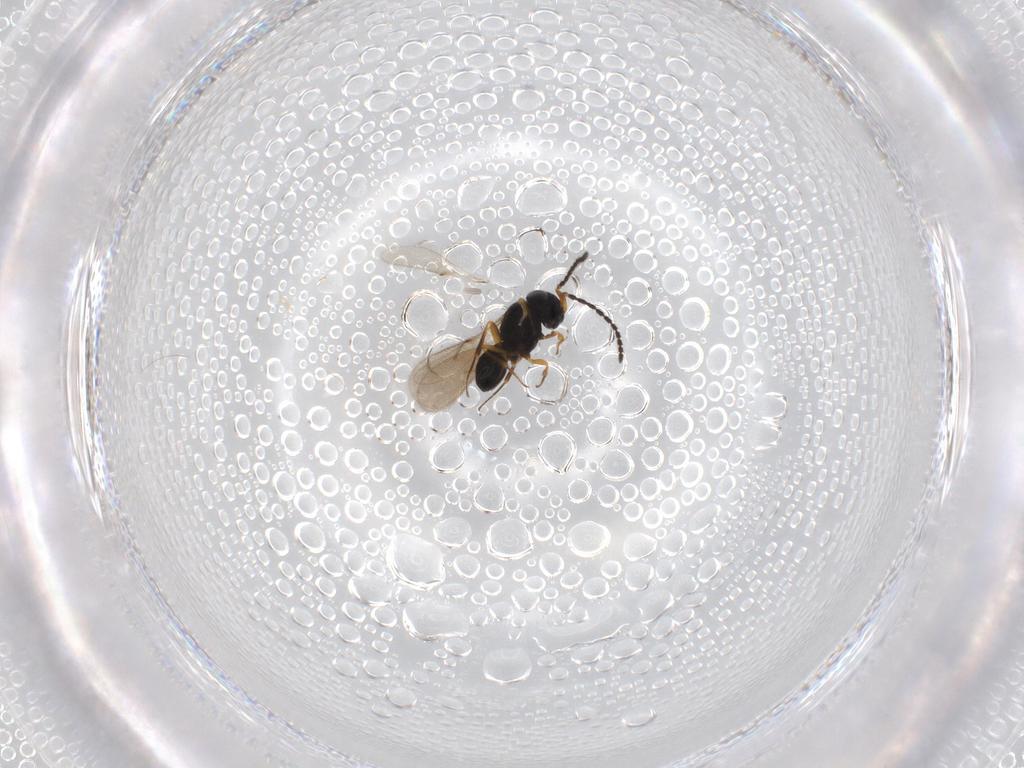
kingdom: Animalia
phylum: Arthropoda
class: Insecta
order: Hymenoptera
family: Scelionidae
